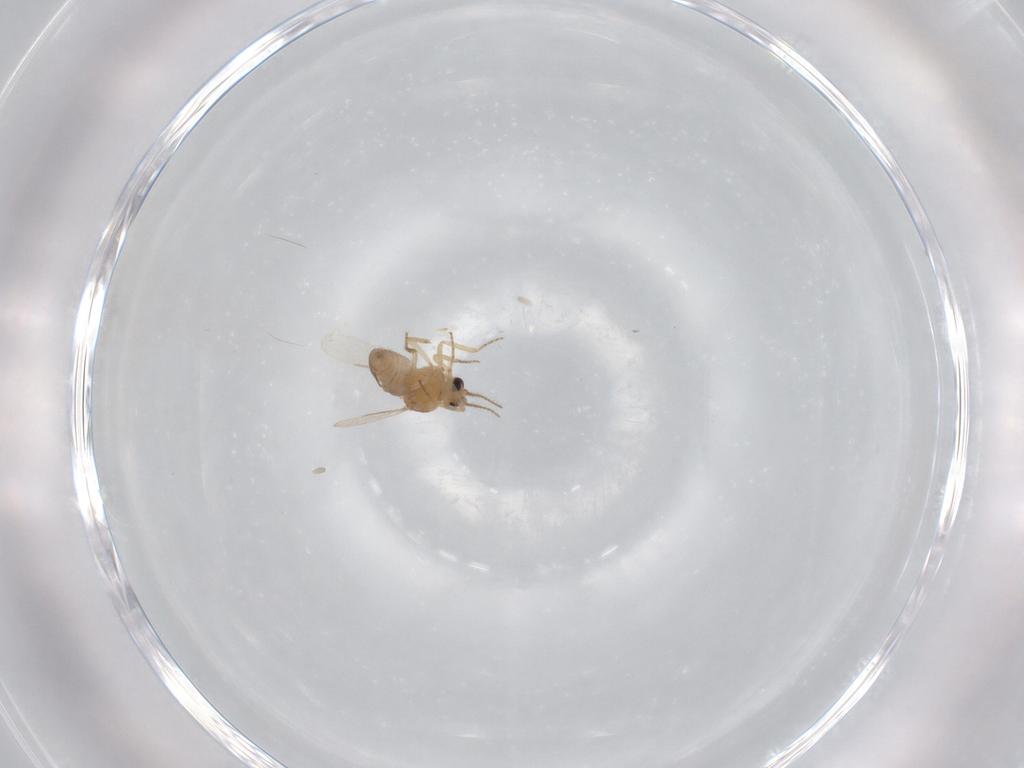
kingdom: Animalia
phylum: Arthropoda
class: Insecta
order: Diptera
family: Ceratopogonidae
